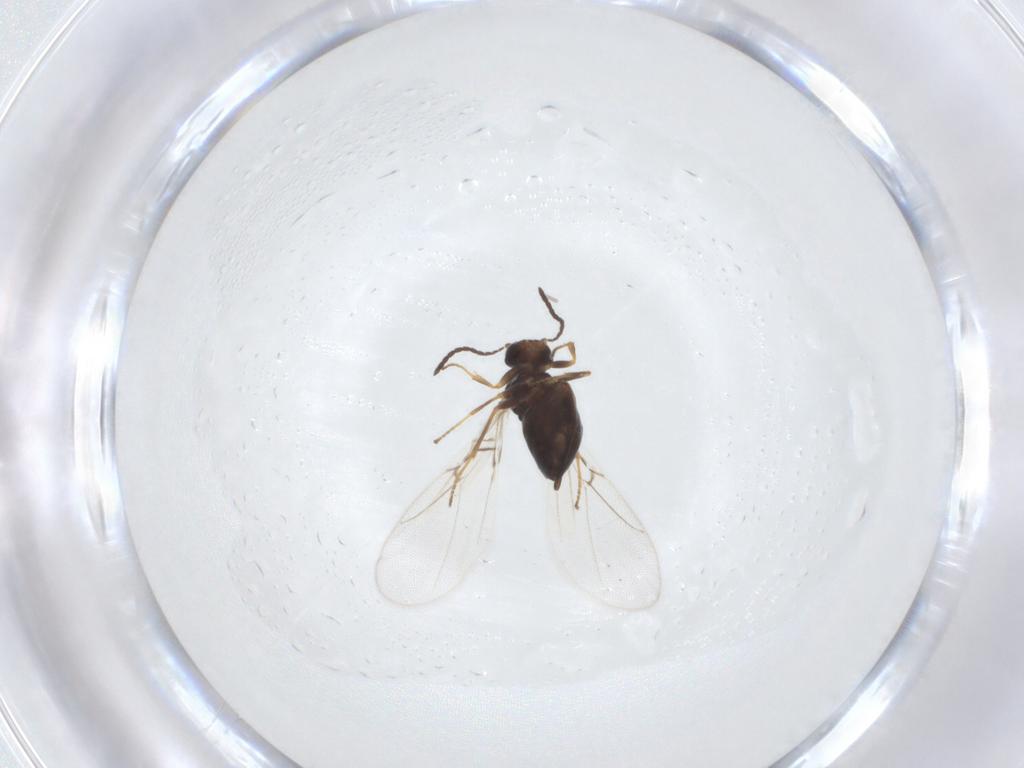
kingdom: Animalia
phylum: Arthropoda
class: Insecta
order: Hymenoptera
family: Cynipidae
